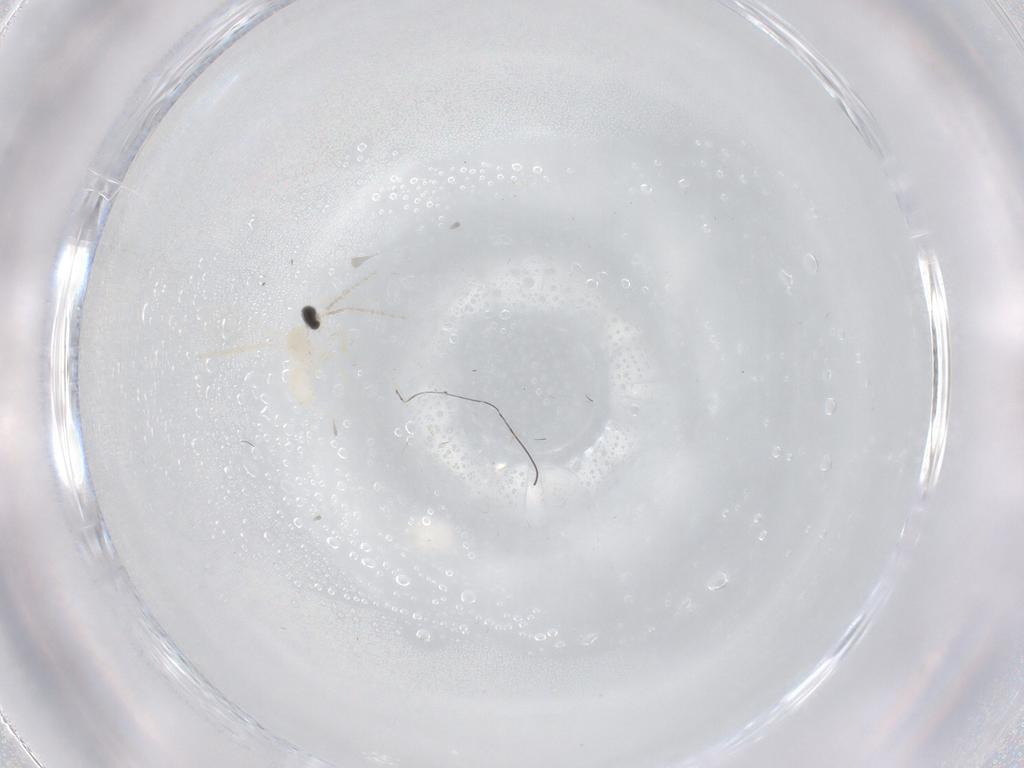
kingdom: Animalia
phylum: Arthropoda
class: Insecta
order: Diptera
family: Cecidomyiidae
